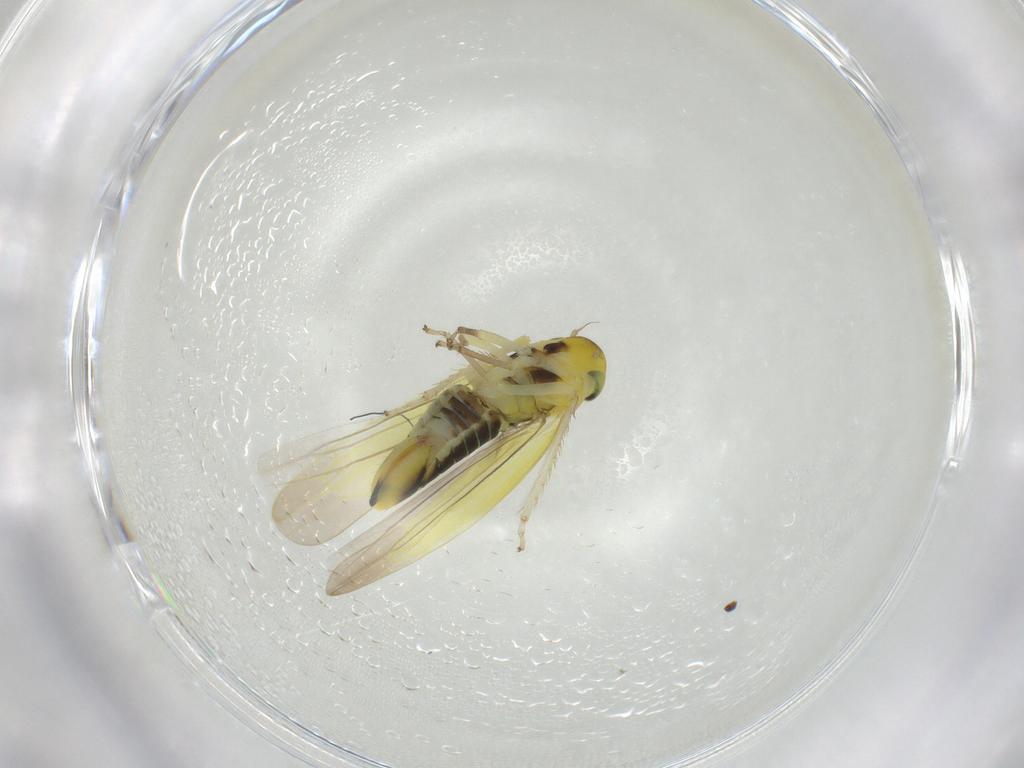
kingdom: Animalia
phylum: Arthropoda
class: Insecta
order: Hemiptera
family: Cicadellidae
